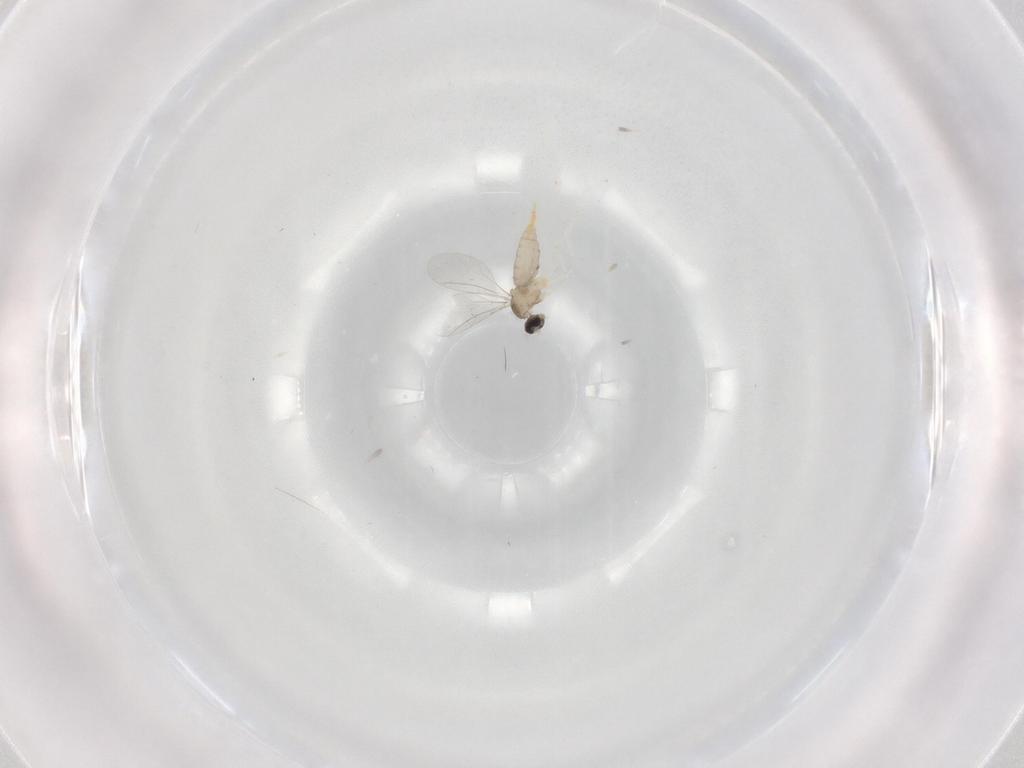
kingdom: Animalia
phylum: Arthropoda
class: Insecta
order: Diptera
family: Cecidomyiidae
